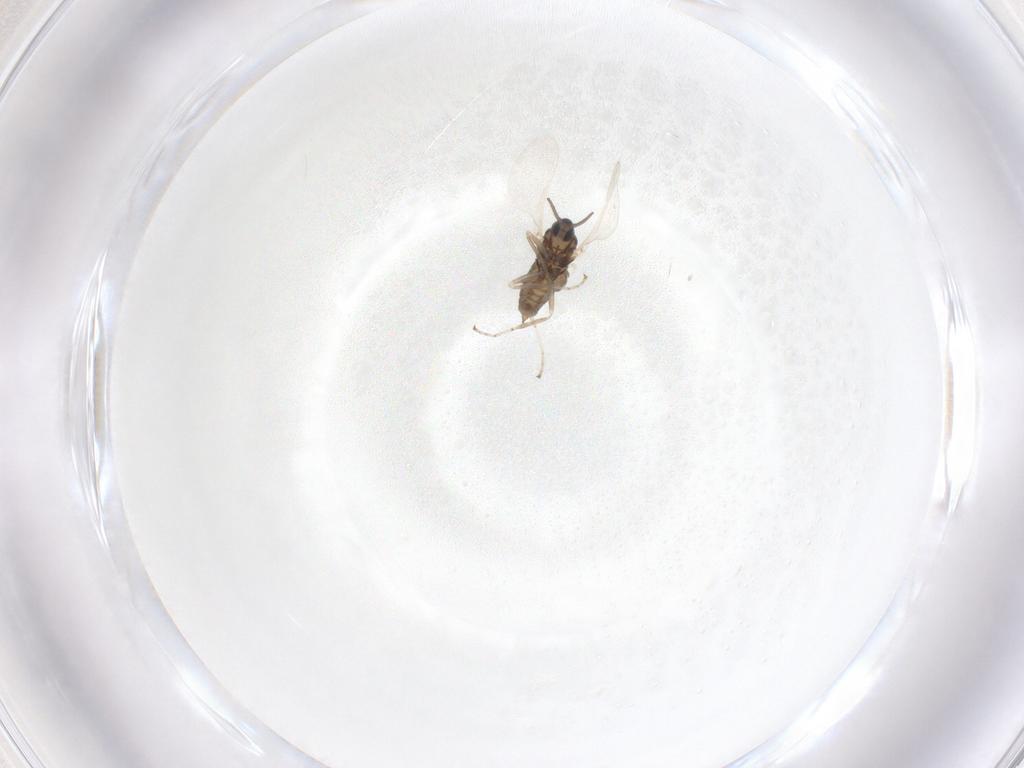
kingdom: Animalia
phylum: Arthropoda
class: Insecta
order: Diptera
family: Cecidomyiidae
